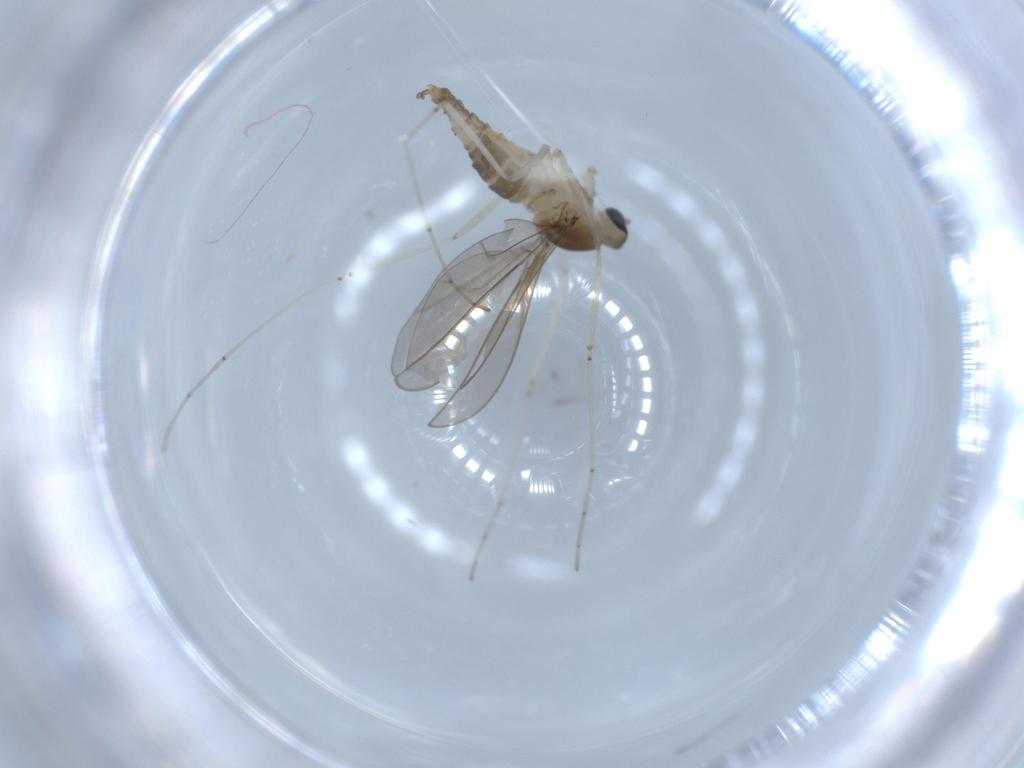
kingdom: Animalia
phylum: Arthropoda
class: Insecta
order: Diptera
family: Cecidomyiidae
